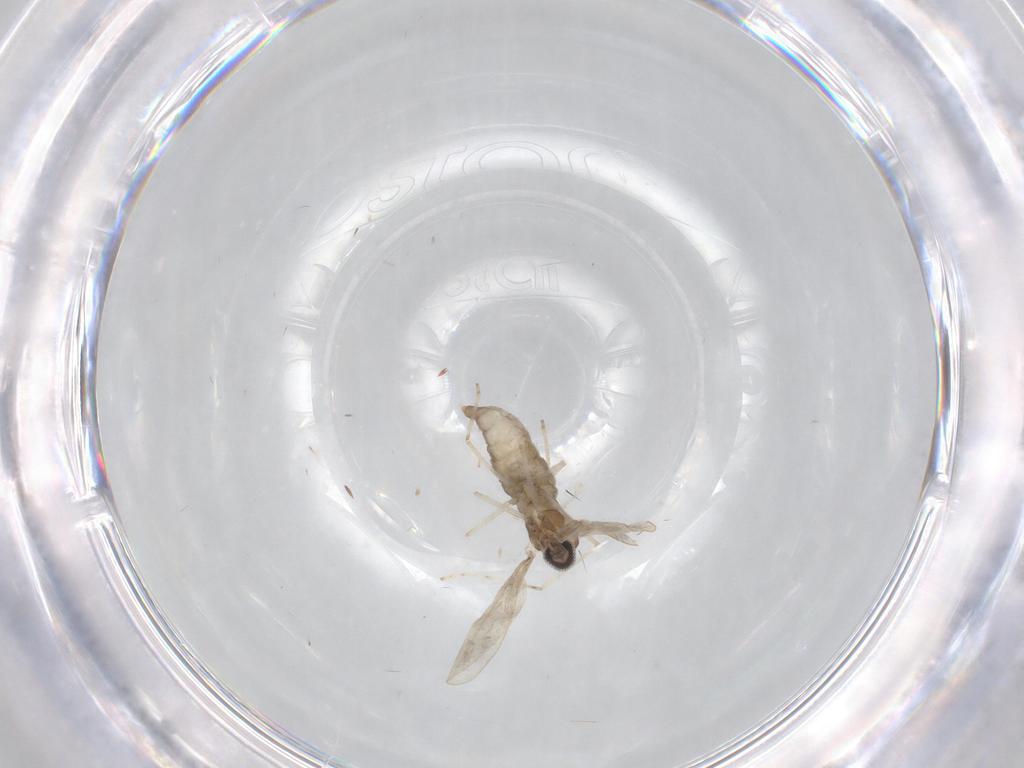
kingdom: Animalia
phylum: Arthropoda
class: Insecta
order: Diptera
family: Cecidomyiidae
